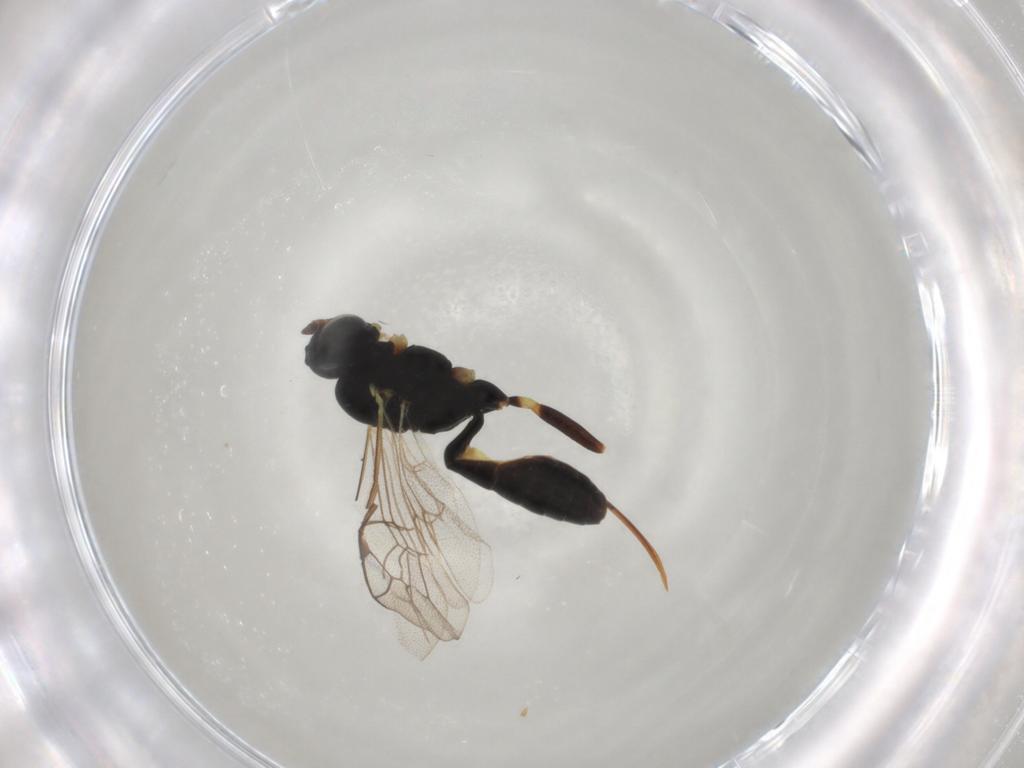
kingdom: Animalia
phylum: Arthropoda
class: Insecta
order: Hymenoptera
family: Ichneumonidae
